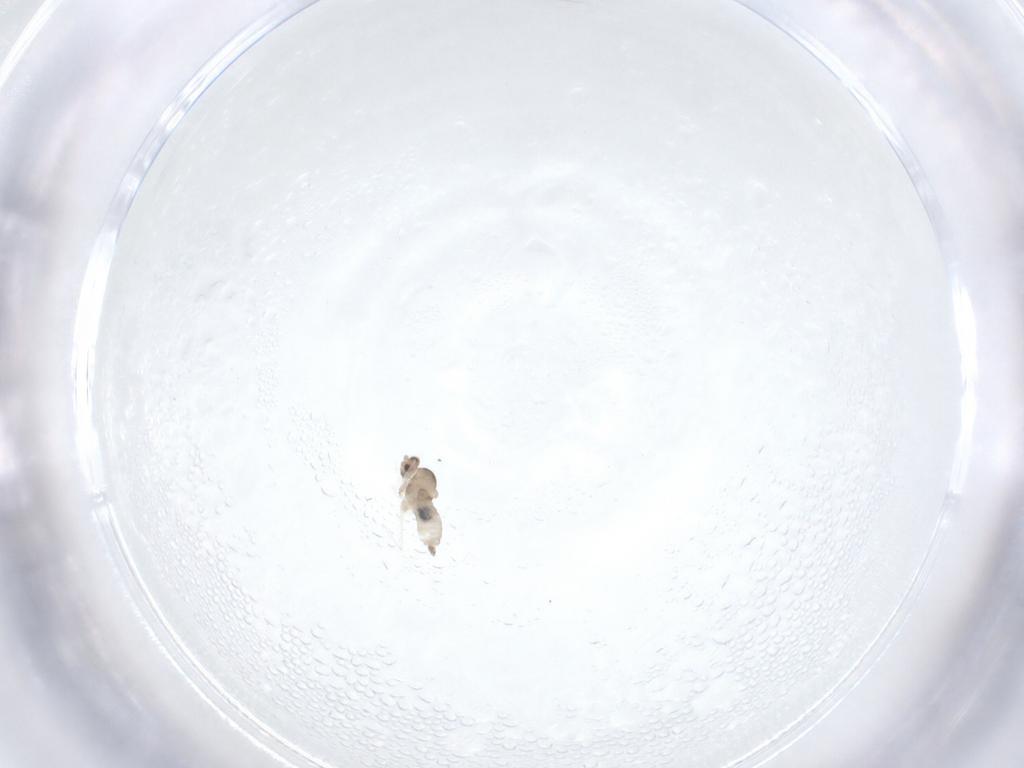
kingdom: Animalia
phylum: Arthropoda
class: Insecta
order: Diptera
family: Cecidomyiidae
